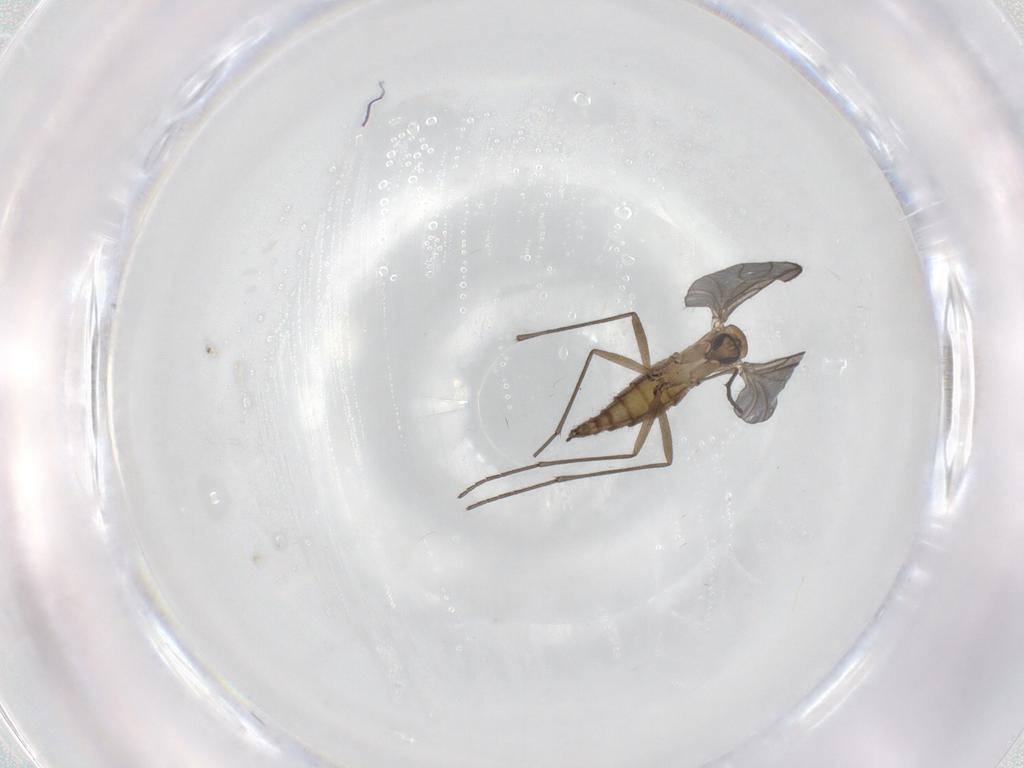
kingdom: Animalia
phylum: Arthropoda
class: Insecta
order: Diptera
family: Sciaridae
